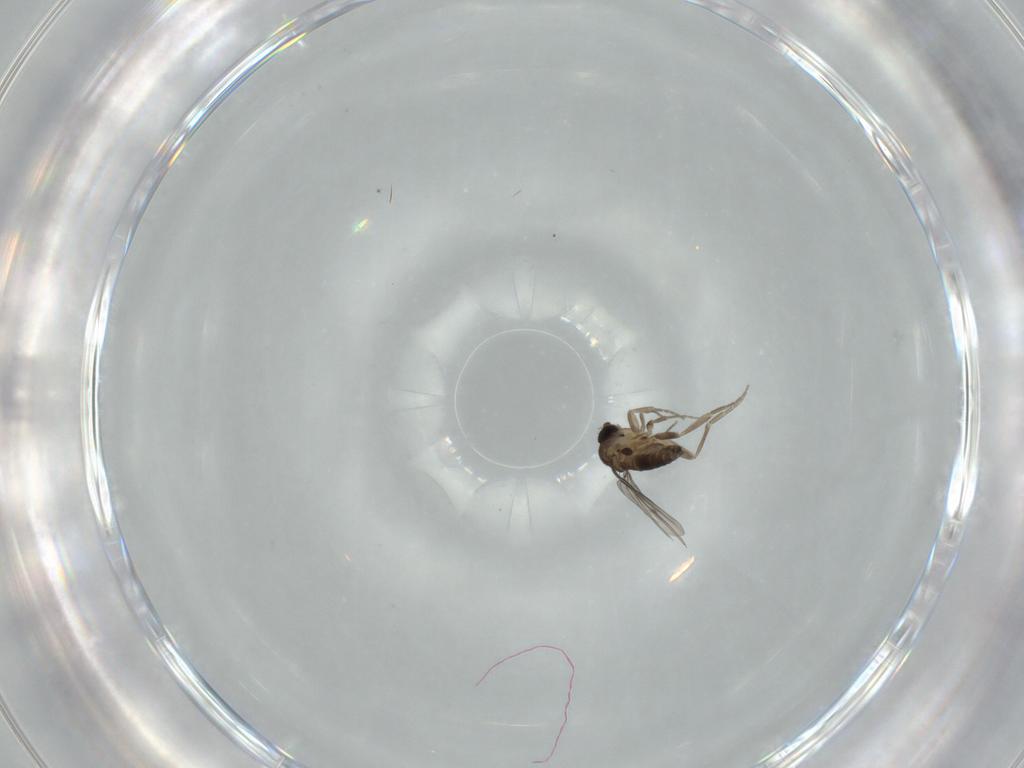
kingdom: Animalia
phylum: Arthropoda
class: Insecta
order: Diptera
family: Phoridae
